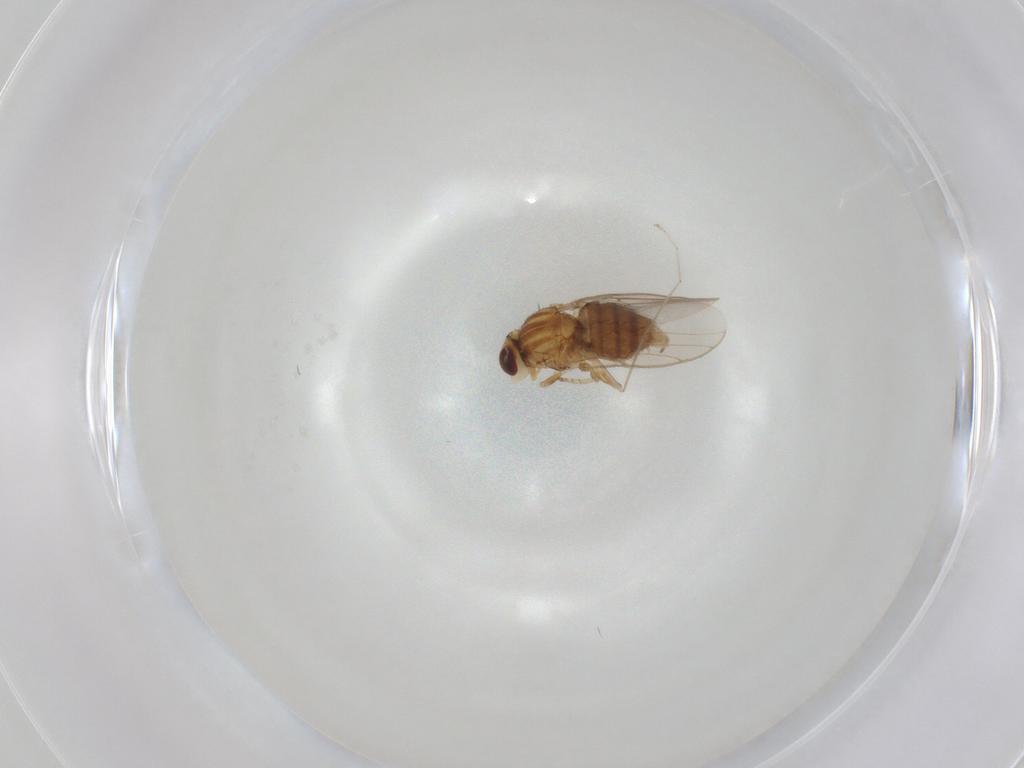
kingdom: Animalia
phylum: Arthropoda
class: Insecta
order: Diptera
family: Chloropidae
